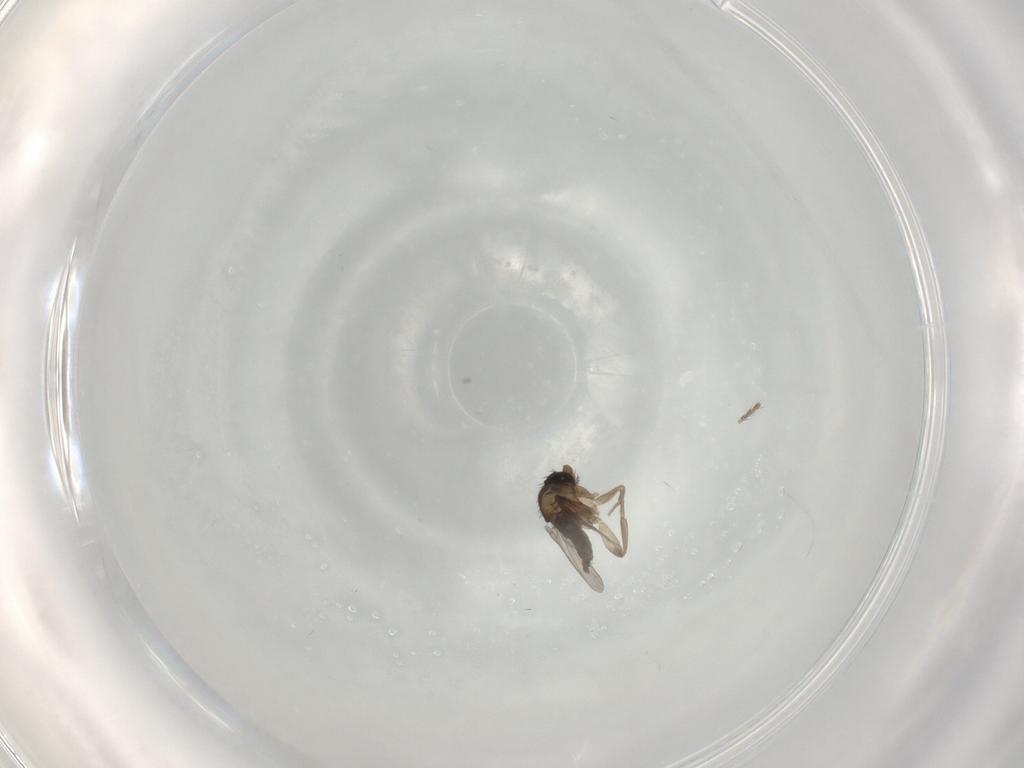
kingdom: Animalia
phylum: Arthropoda
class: Insecta
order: Diptera
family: Phoridae
